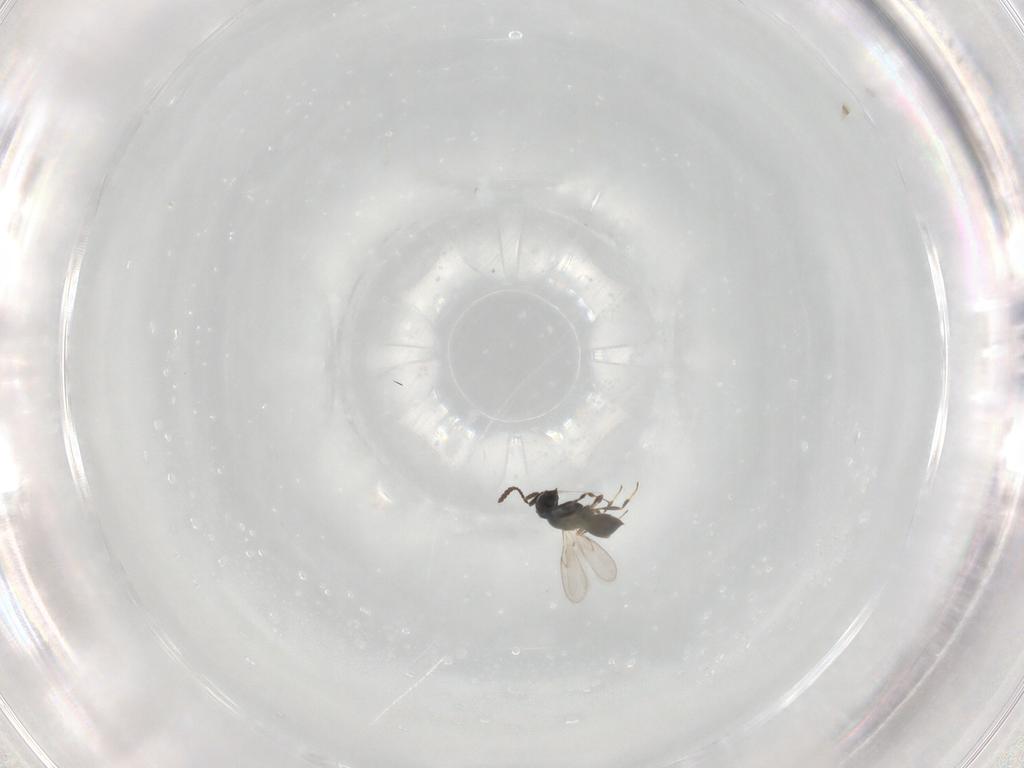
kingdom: Animalia
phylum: Arthropoda
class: Insecta
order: Hymenoptera
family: Scelionidae
